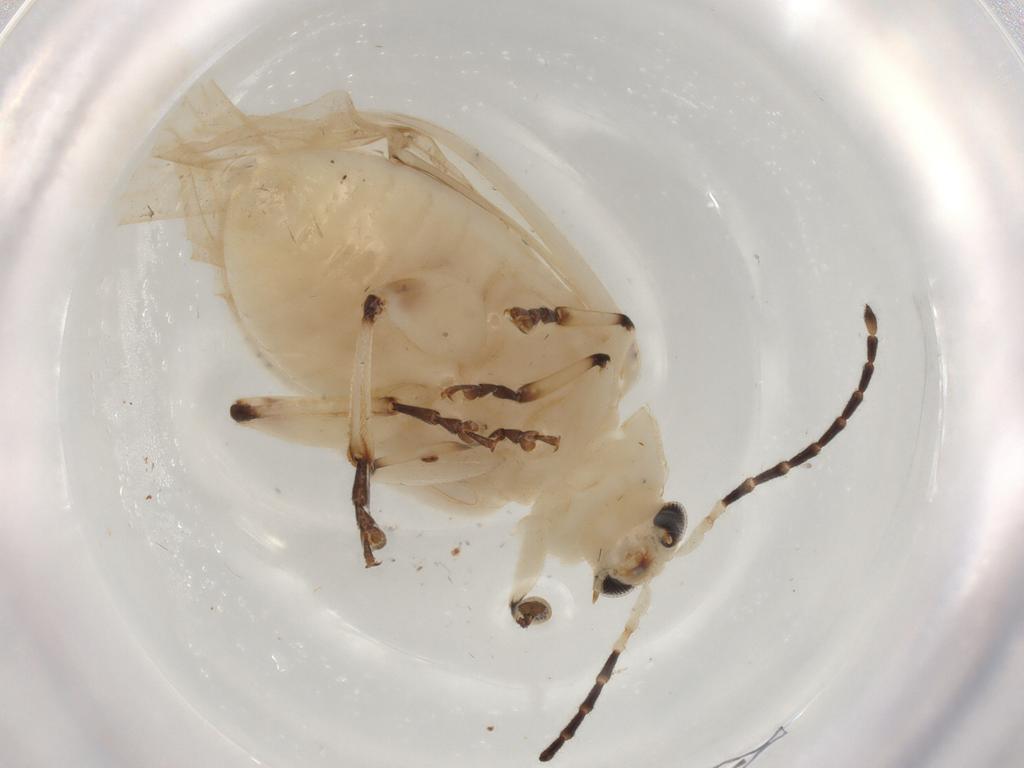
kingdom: Animalia
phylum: Arthropoda
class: Insecta
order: Coleoptera
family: Chrysomelidae
